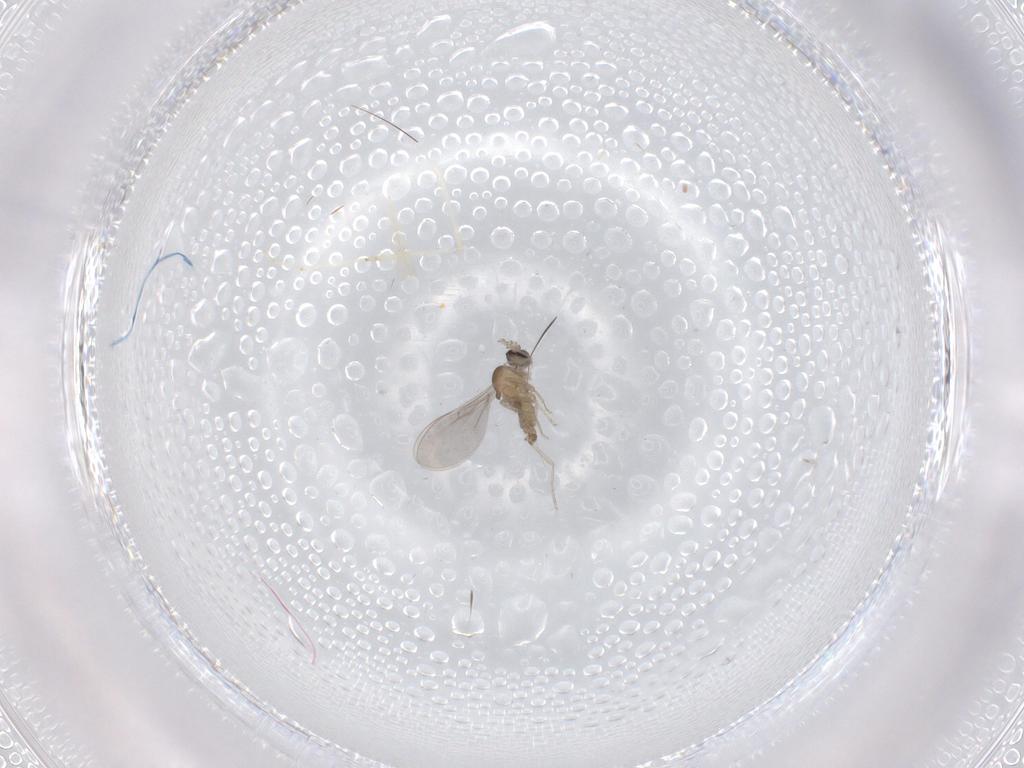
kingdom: Animalia
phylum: Arthropoda
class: Insecta
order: Diptera
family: Cecidomyiidae
